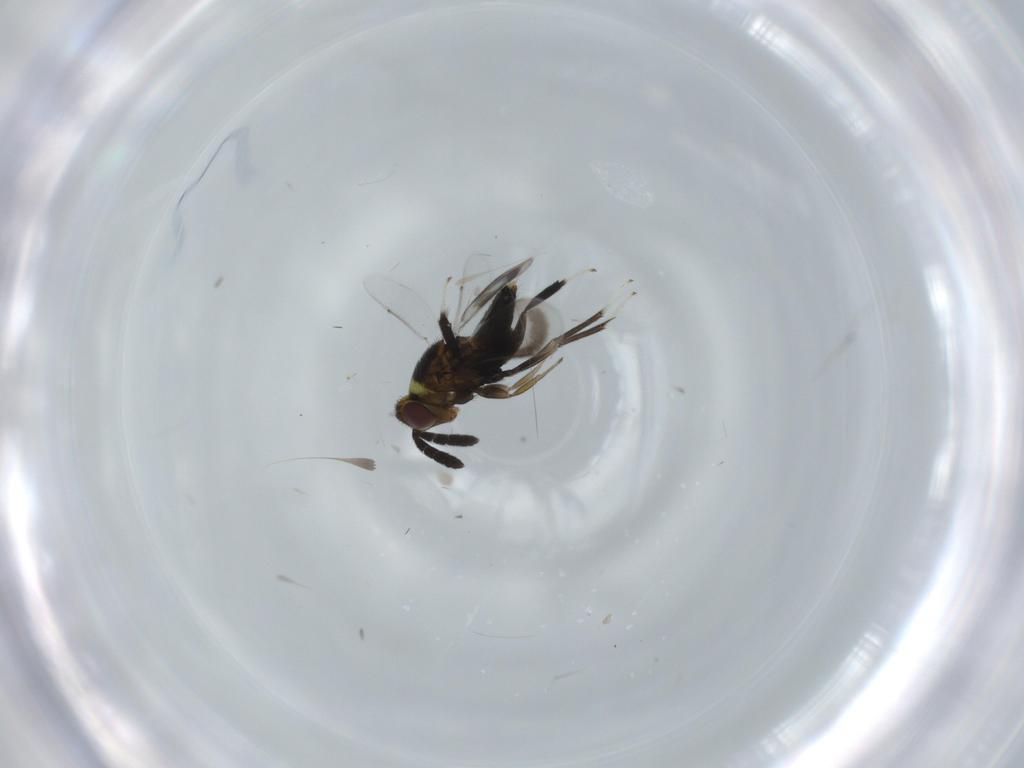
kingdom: Animalia
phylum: Arthropoda
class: Insecta
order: Hymenoptera
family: Aphelinidae
